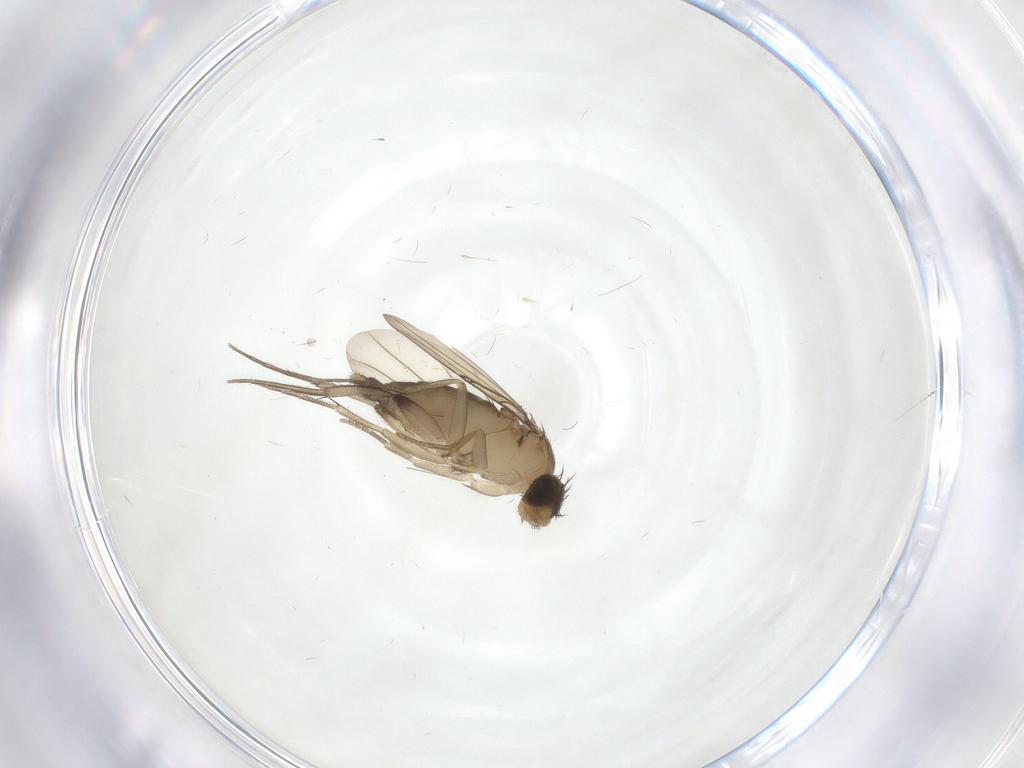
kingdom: Animalia
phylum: Arthropoda
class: Insecta
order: Diptera
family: Phoridae
